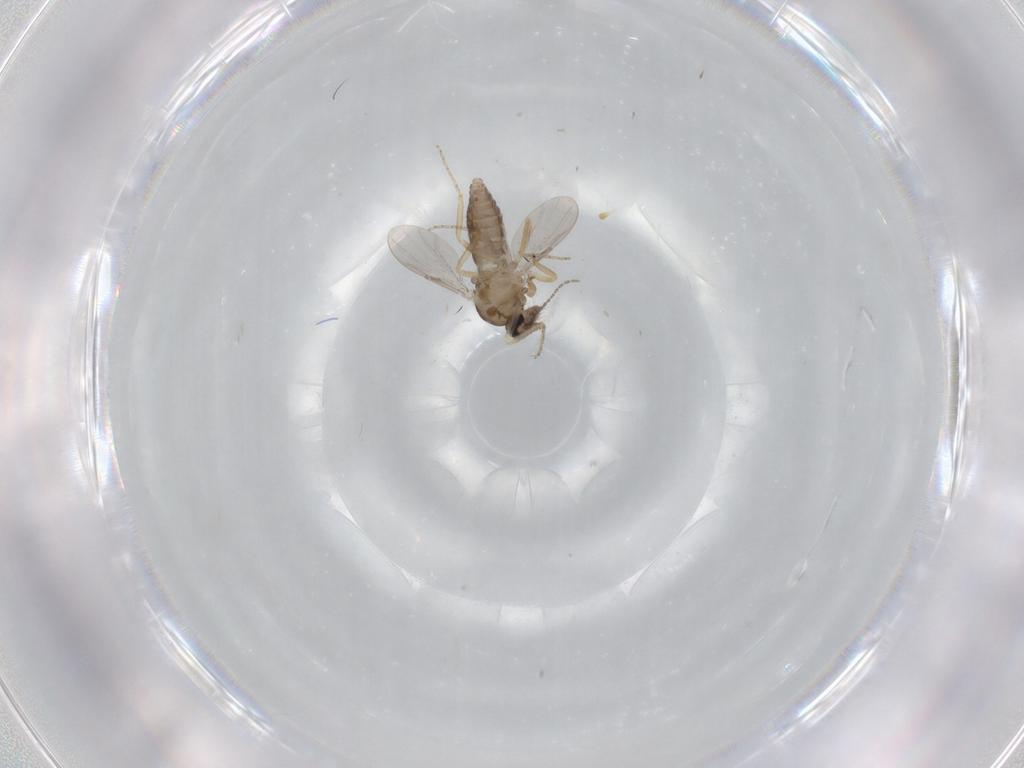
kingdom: Animalia
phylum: Arthropoda
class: Insecta
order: Diptera
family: Ceratopogonidae
